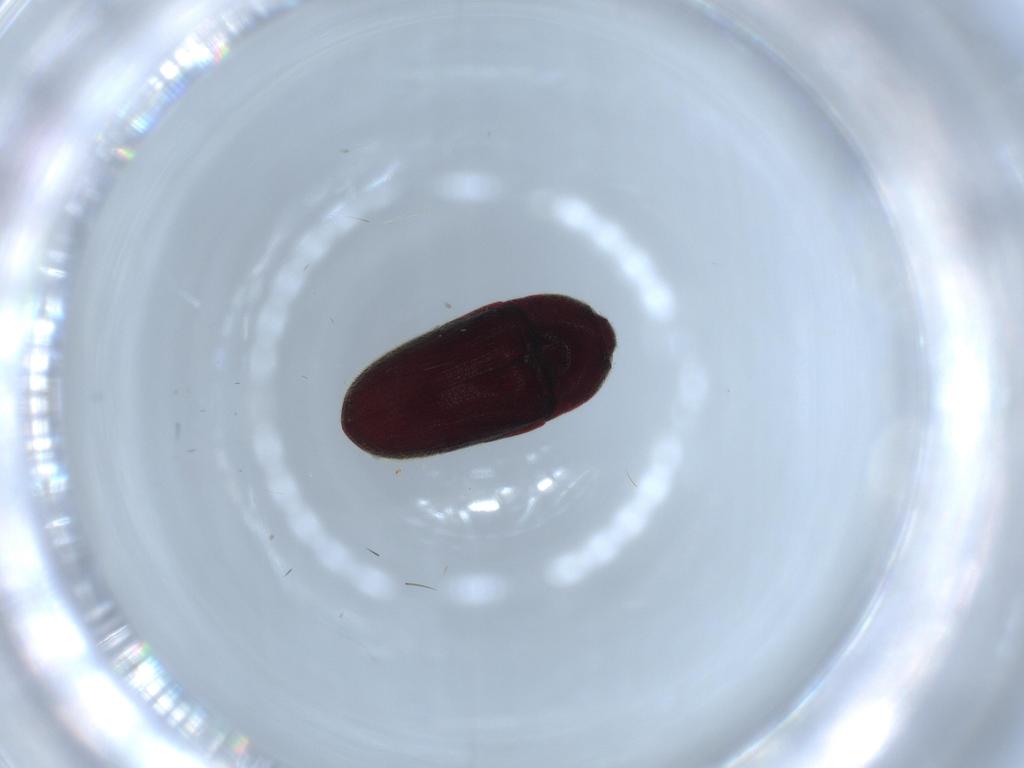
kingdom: Animalia
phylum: Arthropoda
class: Insecta
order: Coleoptera
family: Throscidae
